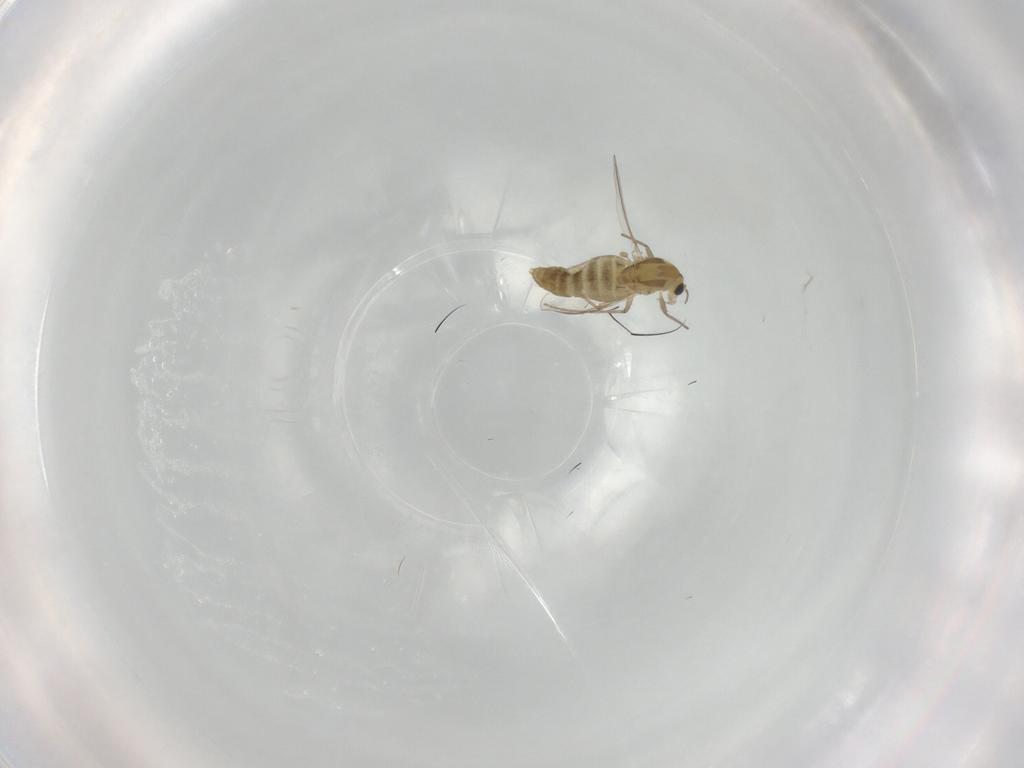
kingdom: Animalia
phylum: Arthropoda
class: Insecta
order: Diptera
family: Chironomidae
